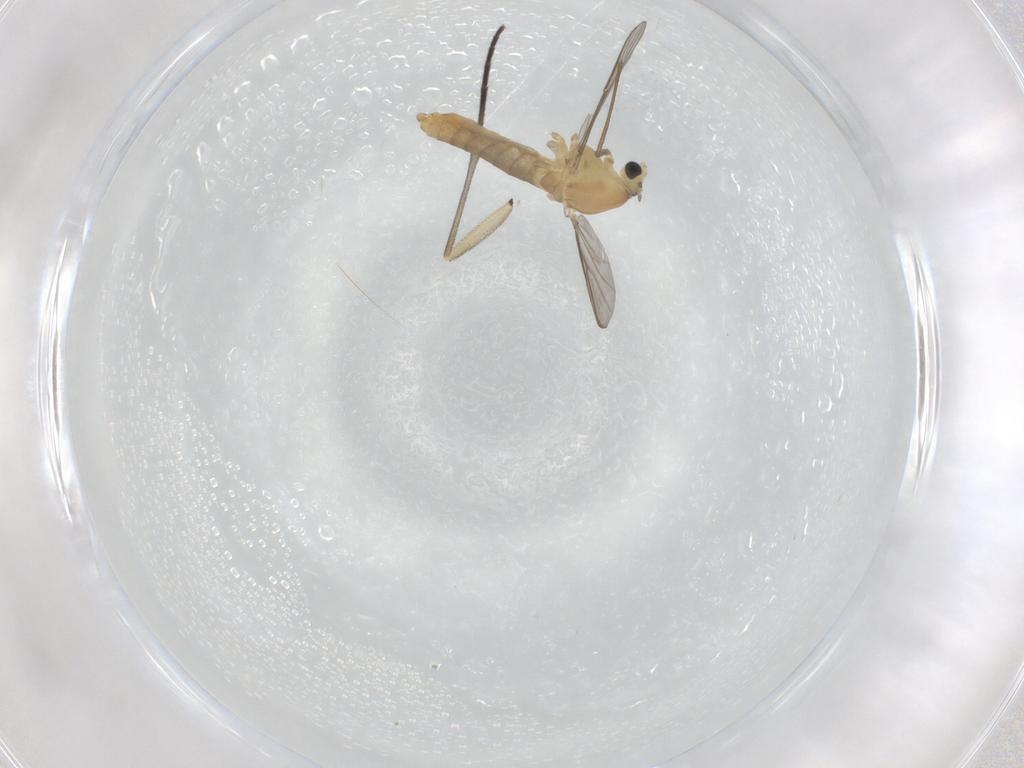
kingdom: Animalia
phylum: Arthropoda
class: Insecta
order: Diptera
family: Chironomidae
